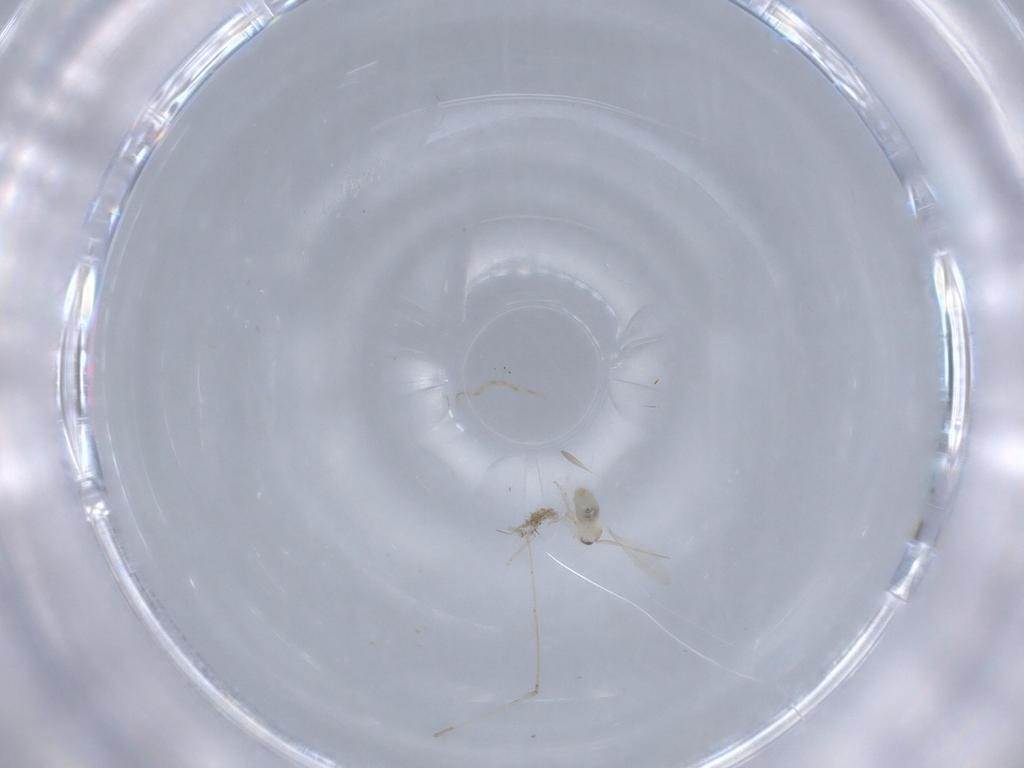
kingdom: Animalia
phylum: Arthropoda
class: Insecta
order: Diptera
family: Cecidomyiidae
